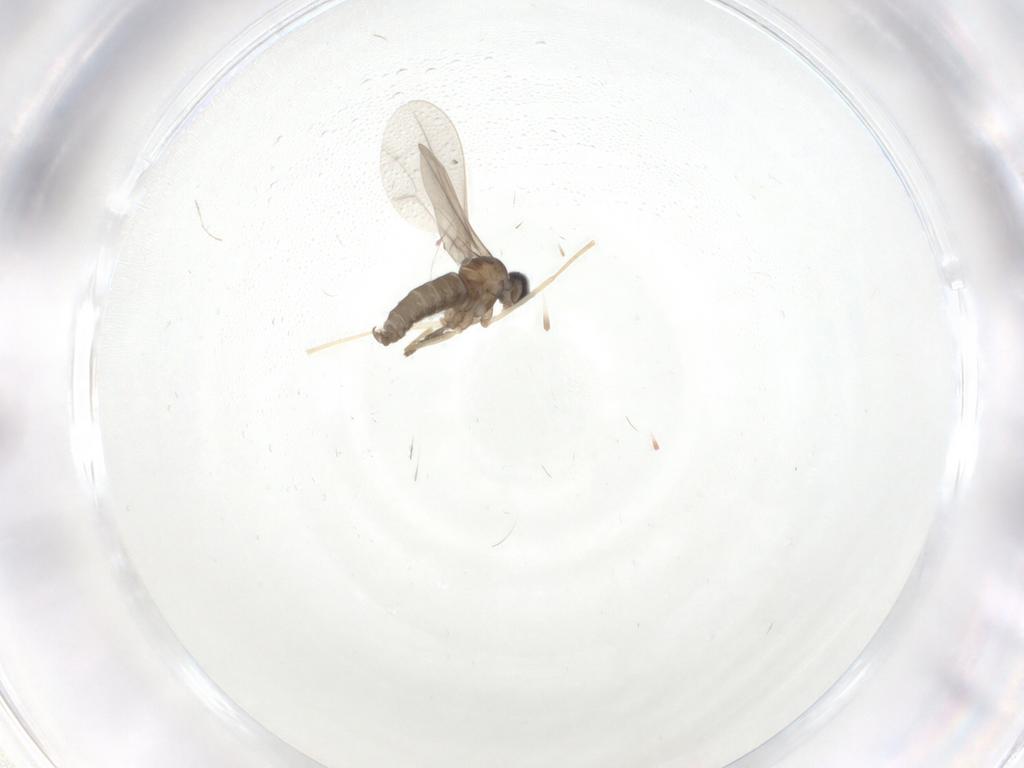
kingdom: Animalia
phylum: Arthropoda
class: Insecta
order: Diptera
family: Psychodidae
